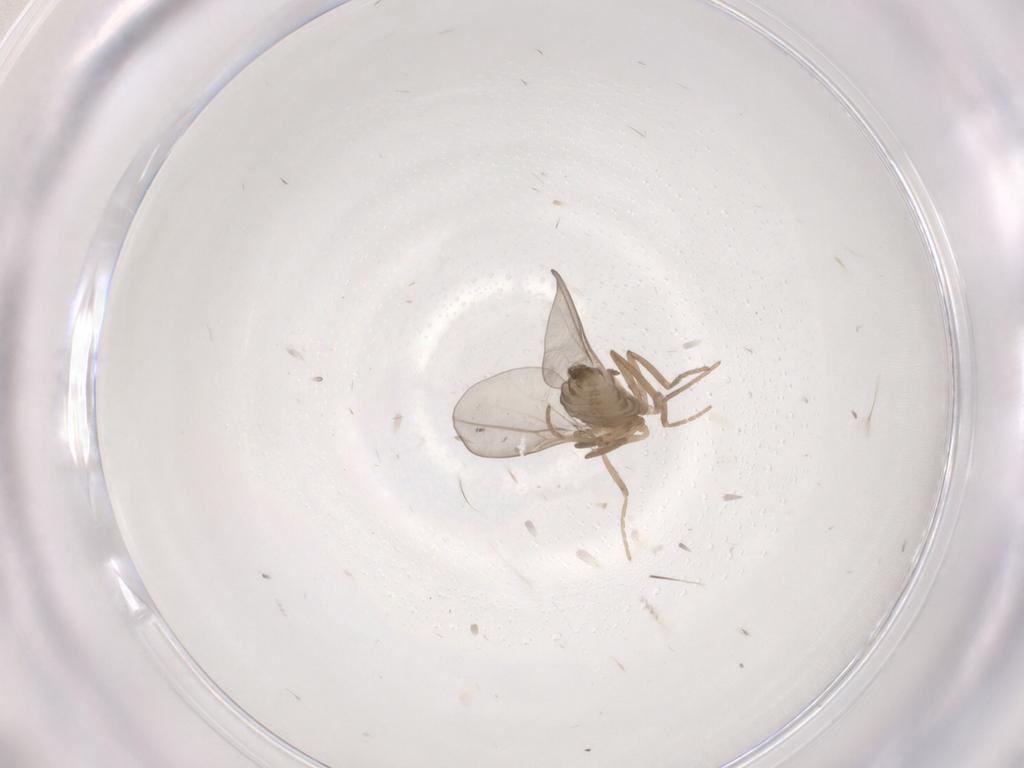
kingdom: Animalia
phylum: Arthropoda
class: Insecta
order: Diptera
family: Cecidomyiidae
